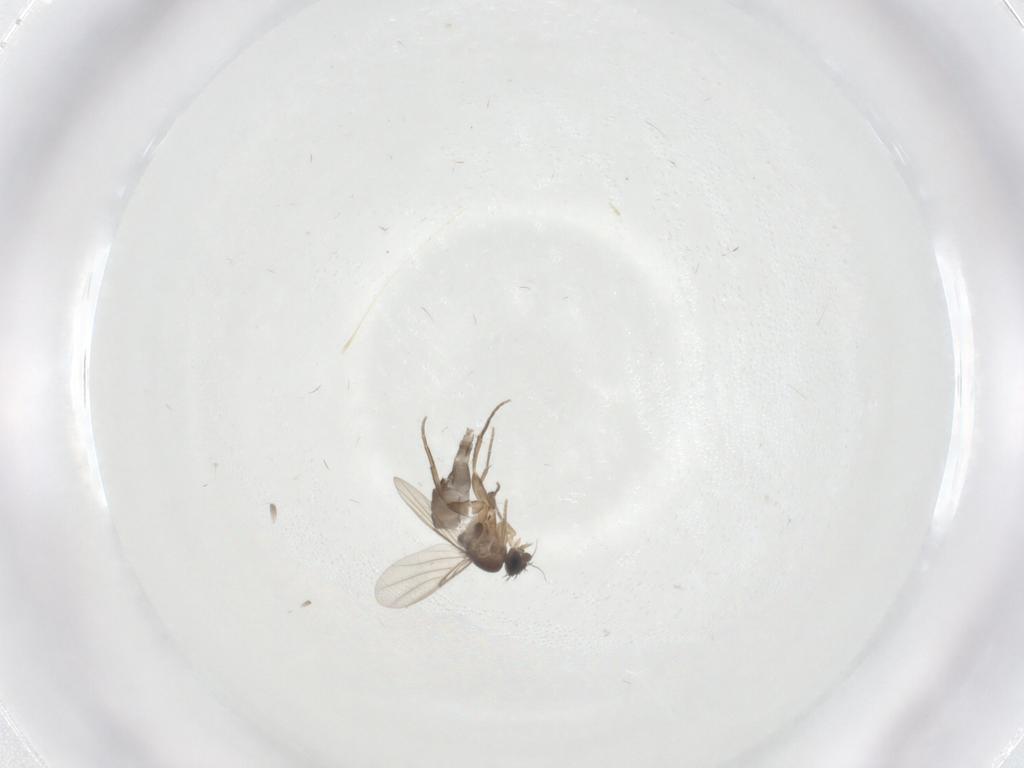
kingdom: Animalia
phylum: Arthropoda
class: Insecta
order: Diptera
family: Phoridae
